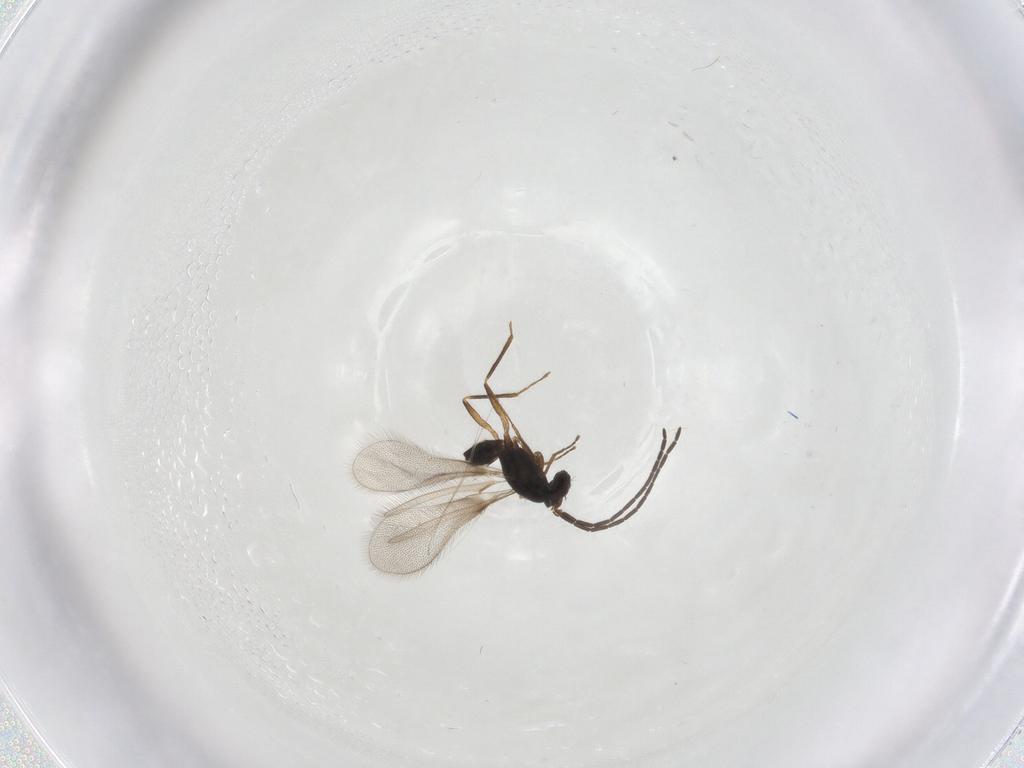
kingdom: Animalia
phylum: Arthropoda
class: Insecta
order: Hymenoptera
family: Mymaridae
